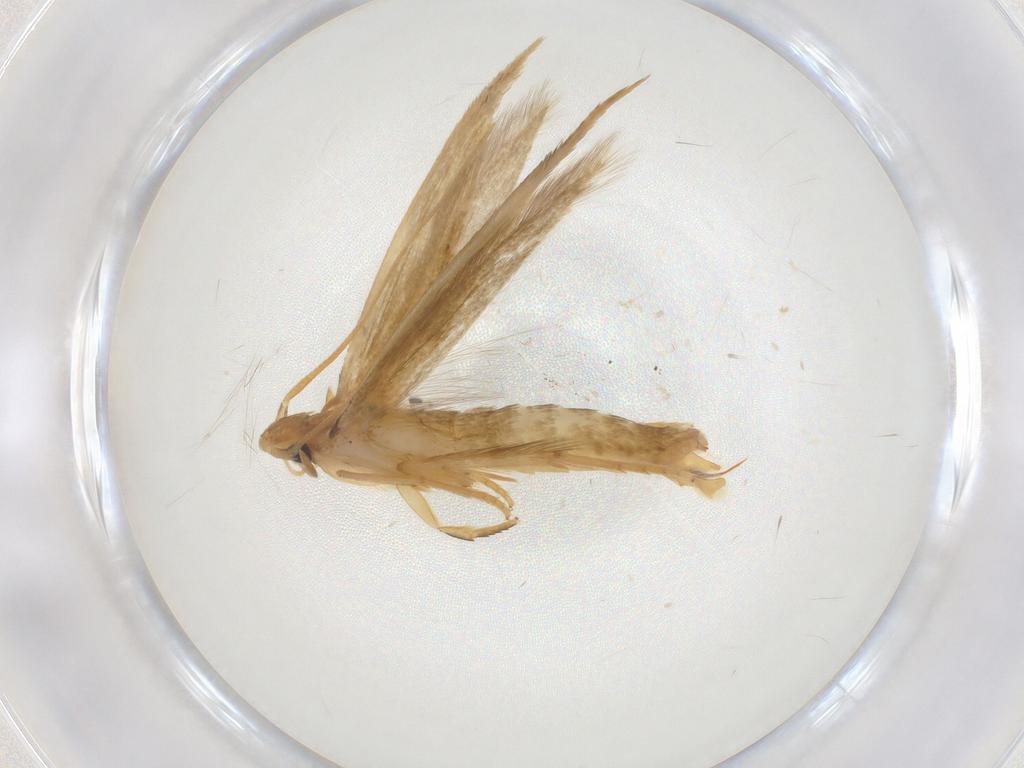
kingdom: Animalia
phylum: Arthropoda
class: Insecta
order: Lepidoptera
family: Tineidae
